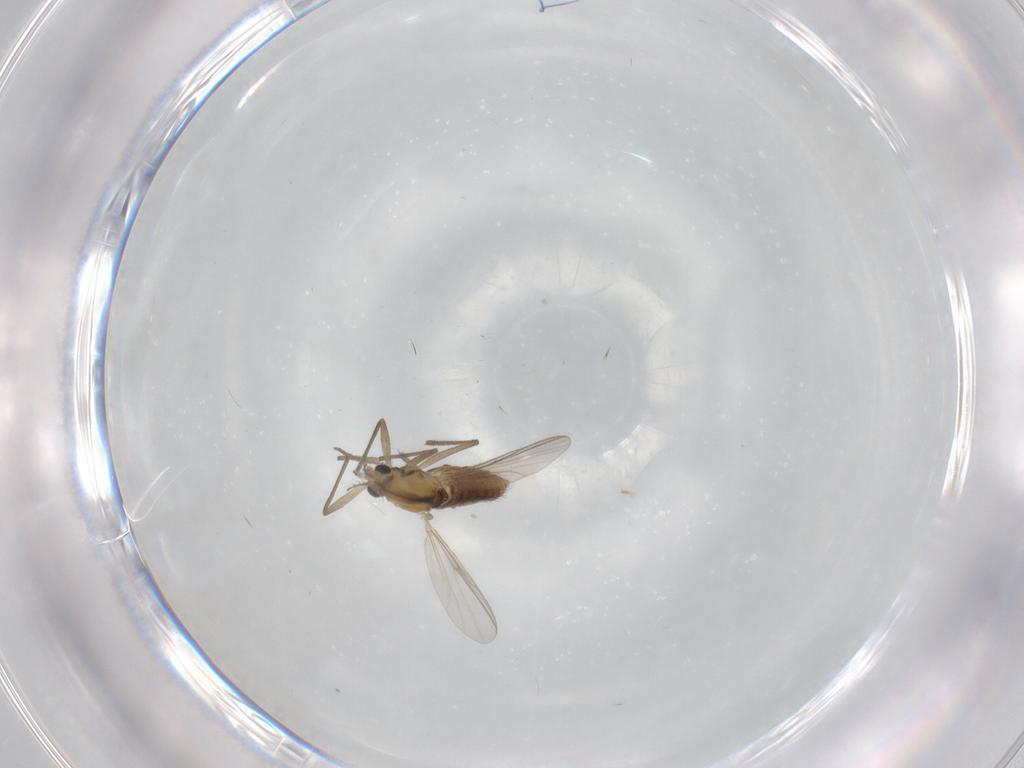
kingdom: Animalia
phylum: Arthropoda
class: Insecta
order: Diptera
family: Chironomidae
